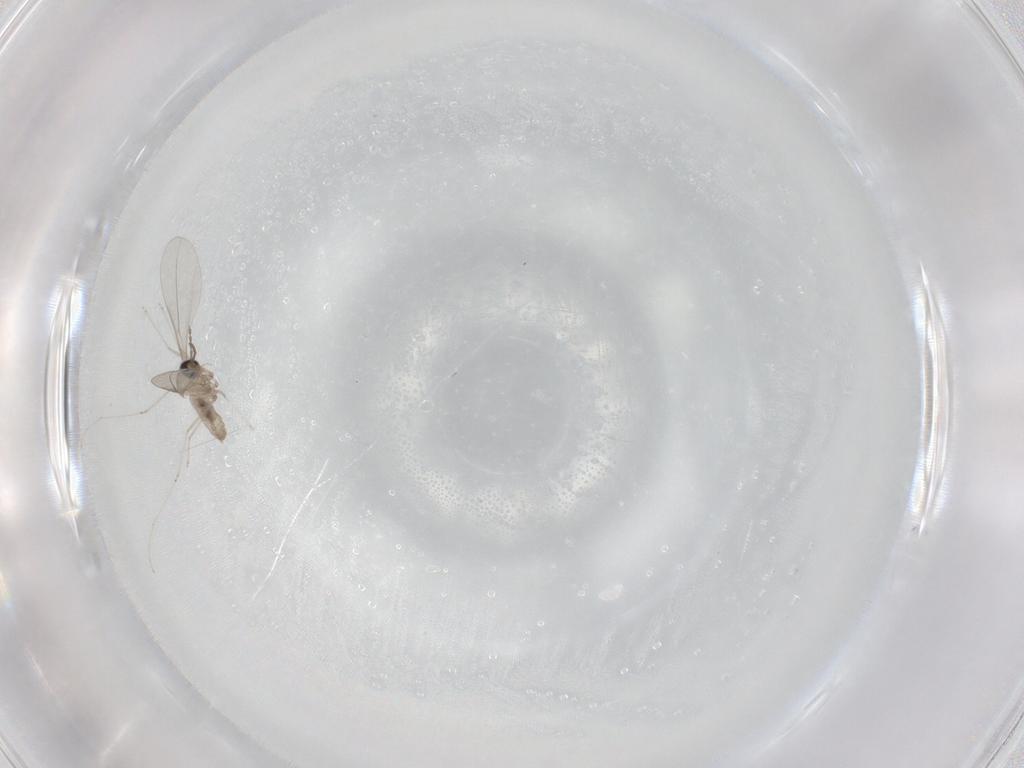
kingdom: Animalia
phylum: Arthropoda
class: Insecta
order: Diptera
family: Cecidomyiidae
